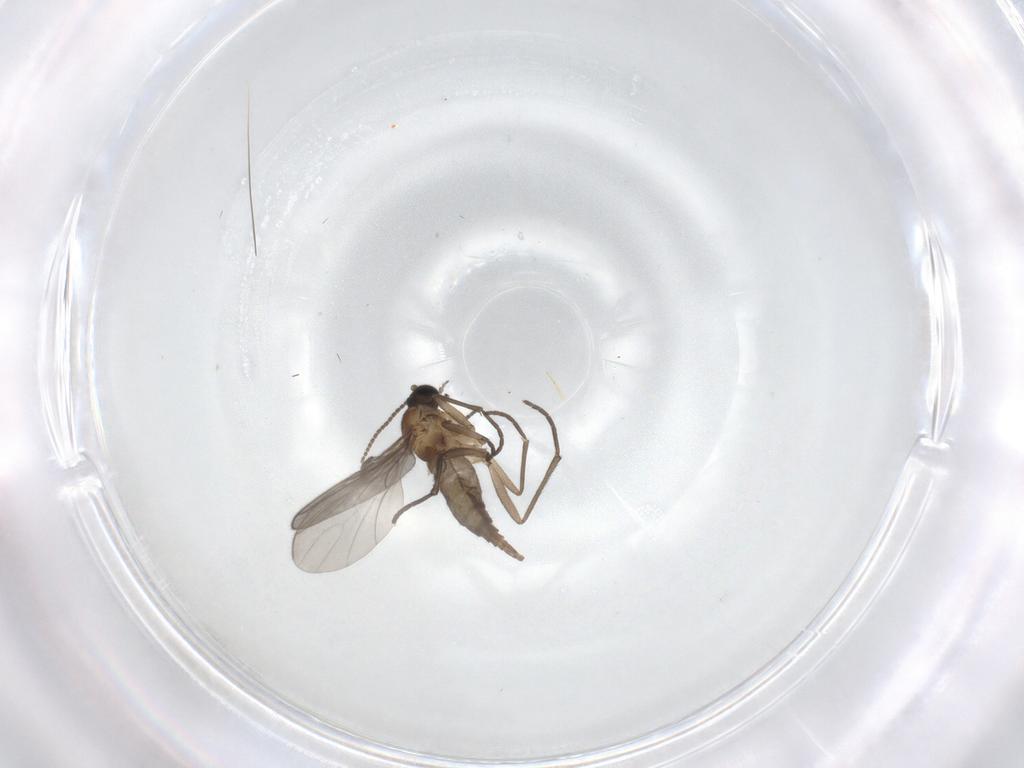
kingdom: Animalia
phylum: Arthropoda
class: Insecta
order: Diptera
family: Sciaridae
